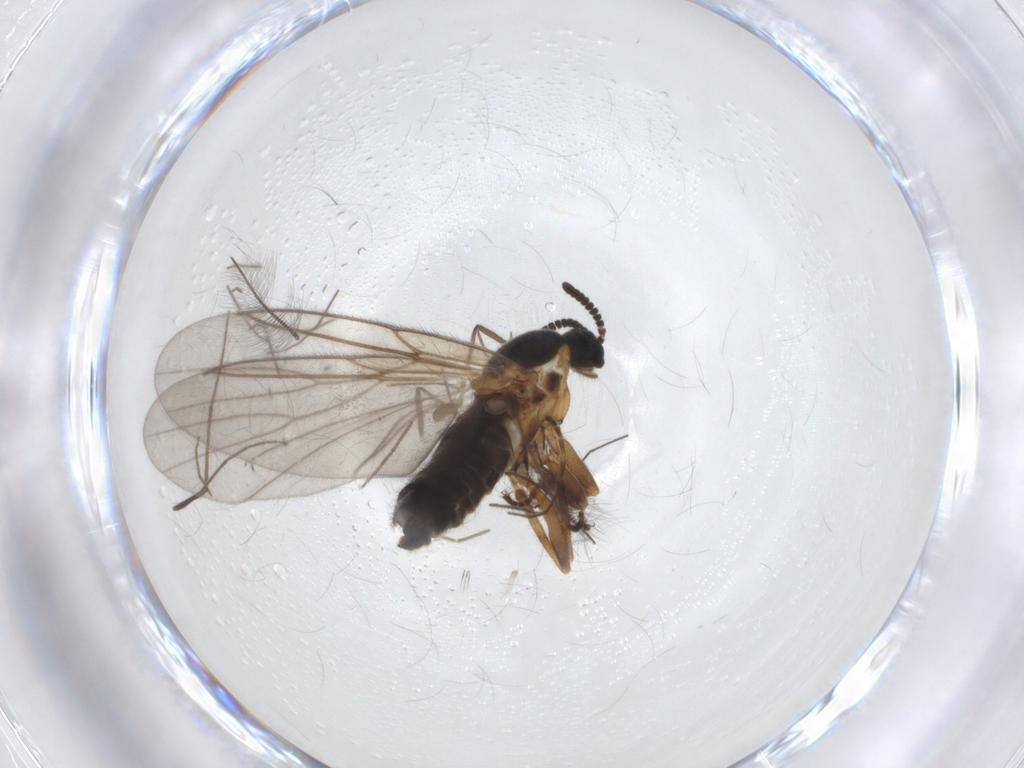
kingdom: Animalia
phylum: Arthropoda
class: Insecta
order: Diptera
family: Scatopsidae
